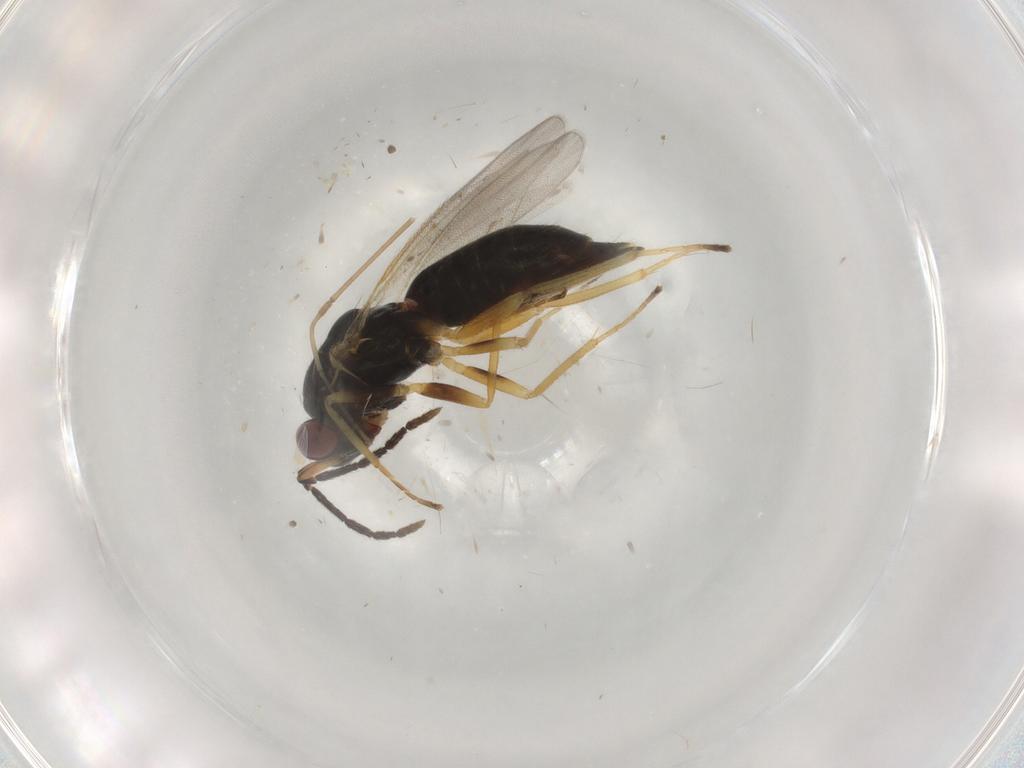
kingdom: Animalia
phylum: Arthropoda
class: Insecta
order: Hymenoptera
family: Eulophidae
